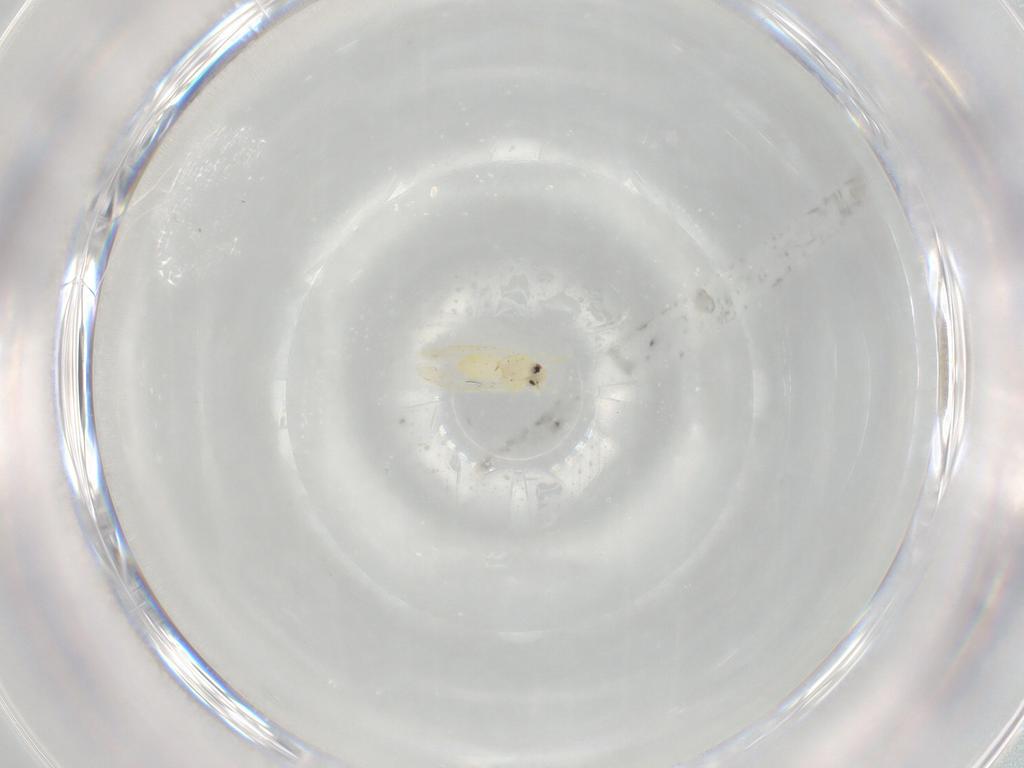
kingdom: Animalia
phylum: Arthropoda
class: Insecta
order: Hemiptera
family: Aleyrodidae
